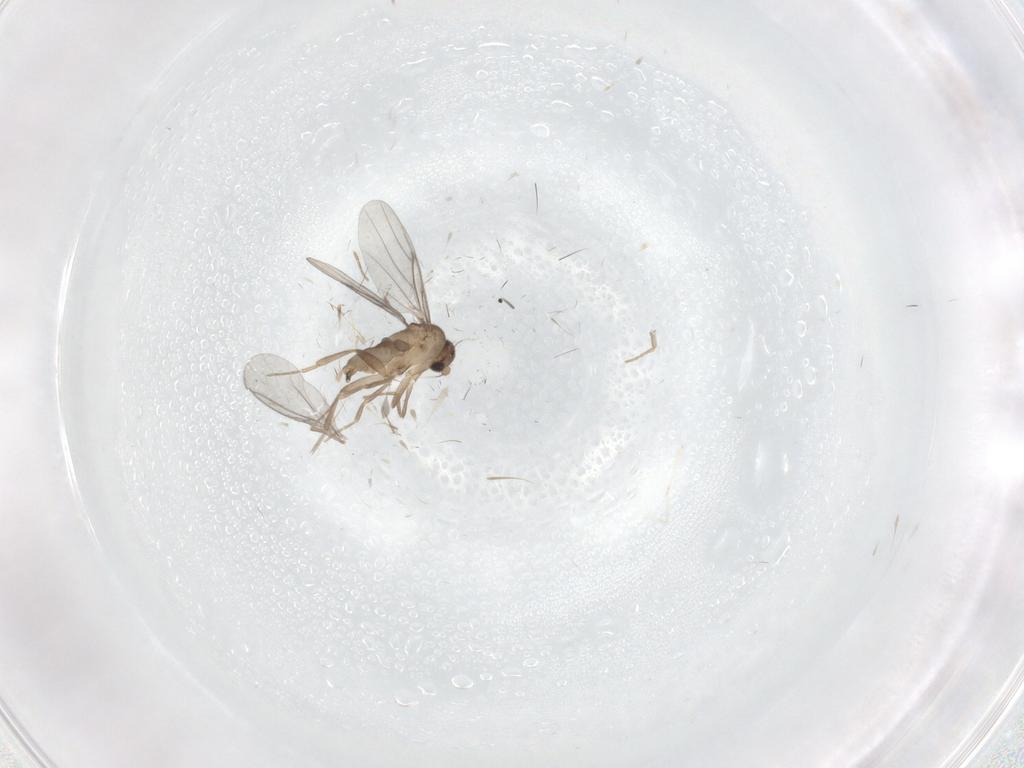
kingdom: Animalia
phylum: Arthropoda
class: Insecta
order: Diptera
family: Cecidomyiidae
